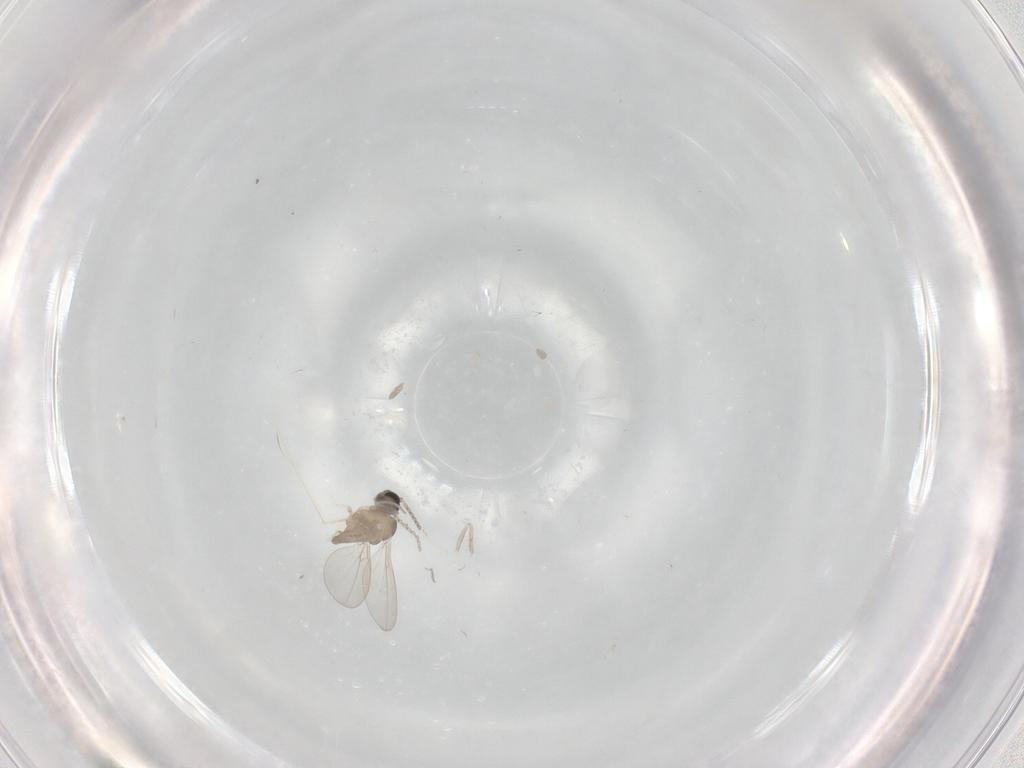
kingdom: Animalia
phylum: Arthropoda
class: Insecta
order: Diptera
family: Cecidomyiidae
